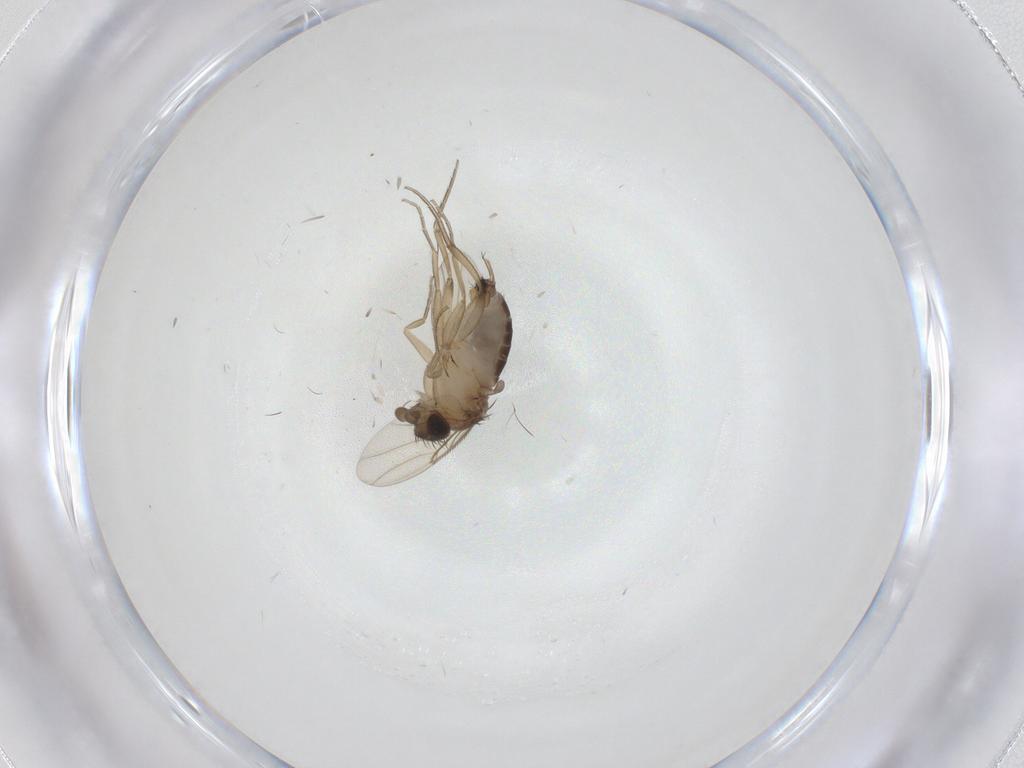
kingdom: Animalia
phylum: Arthropoda
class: Insecta
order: Diptera
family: Phoridae
